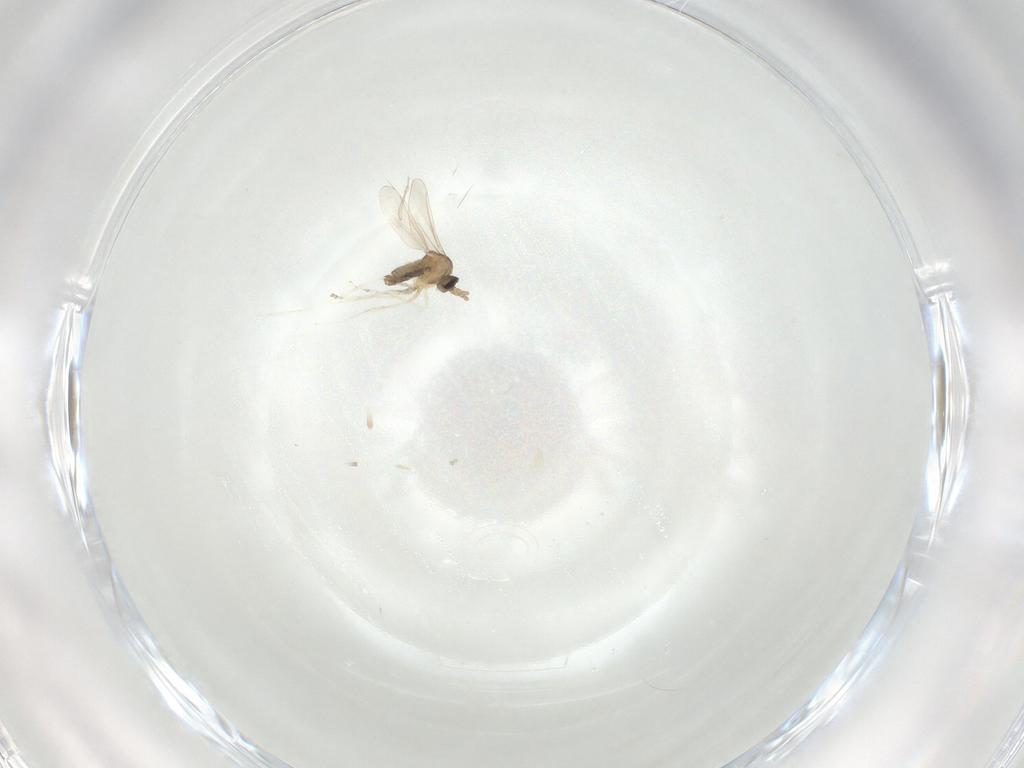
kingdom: Animalia
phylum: Arthropoda
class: Insecta
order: Diptera
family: Cecidomyiidae
